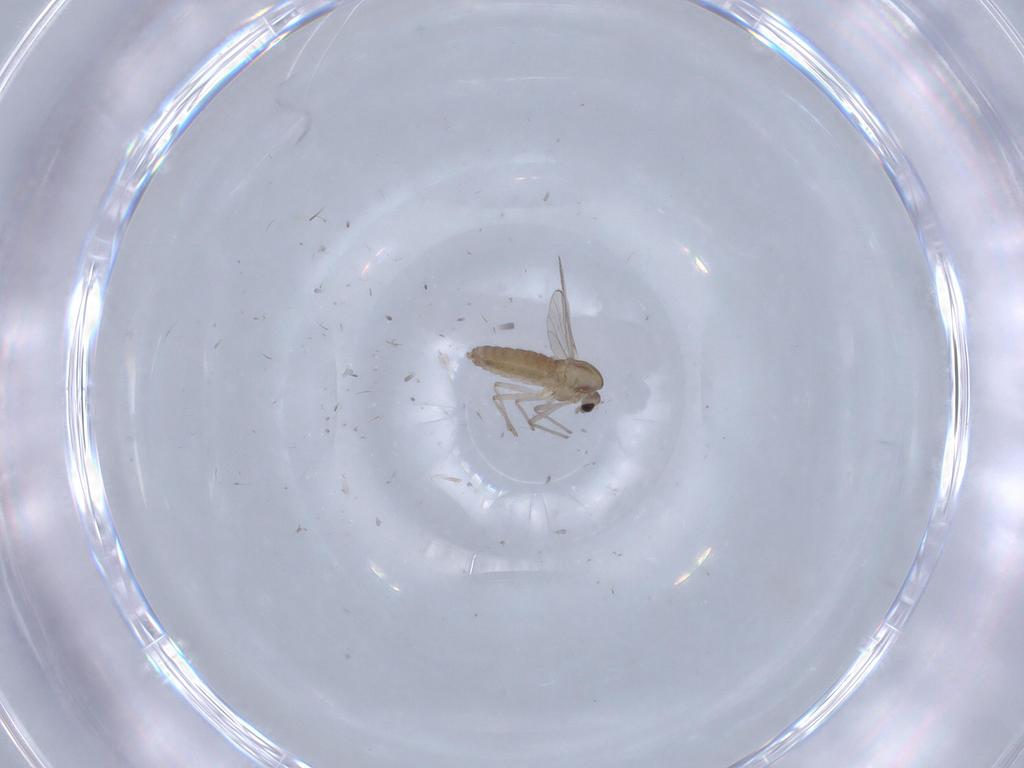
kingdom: Animalia
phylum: Arthropoda
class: Insecta
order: Diptera
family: Chironomidae
